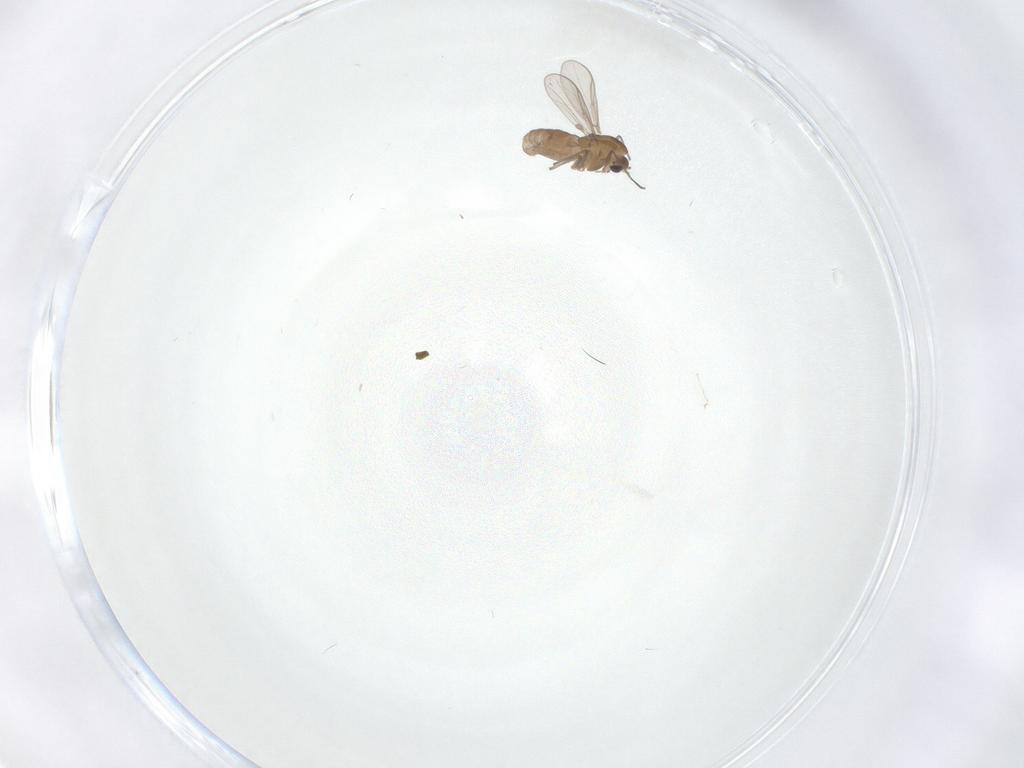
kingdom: Animalia
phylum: Arthropoda
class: Insecta
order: Diptera
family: Chironomidae
